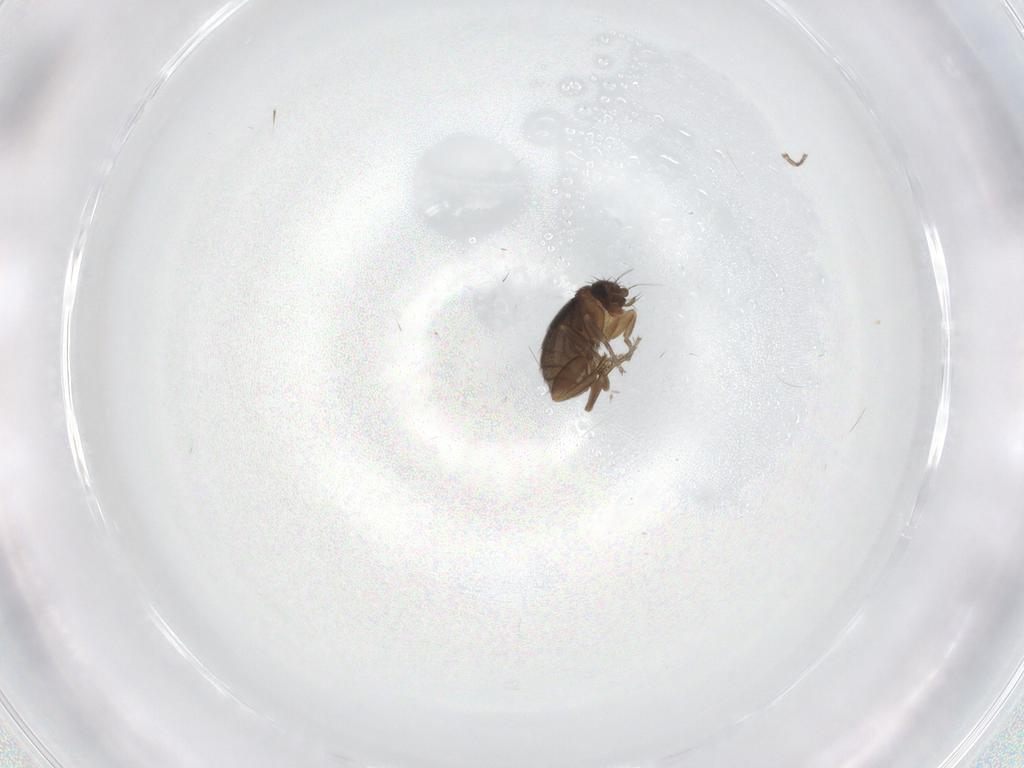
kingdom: Animalia
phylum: Arthropoda
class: Insecta
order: Diptera
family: Phoridae
